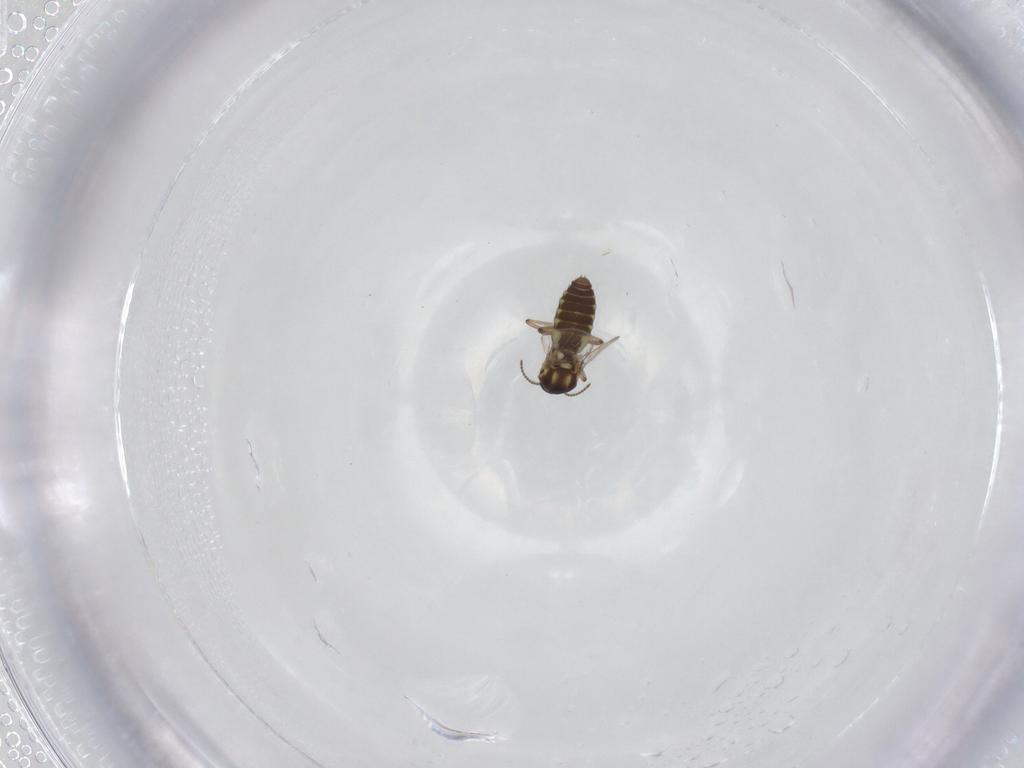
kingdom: Animalia
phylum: Arthropoda
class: Insecta
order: Diptera
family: Ceratopogonidae
